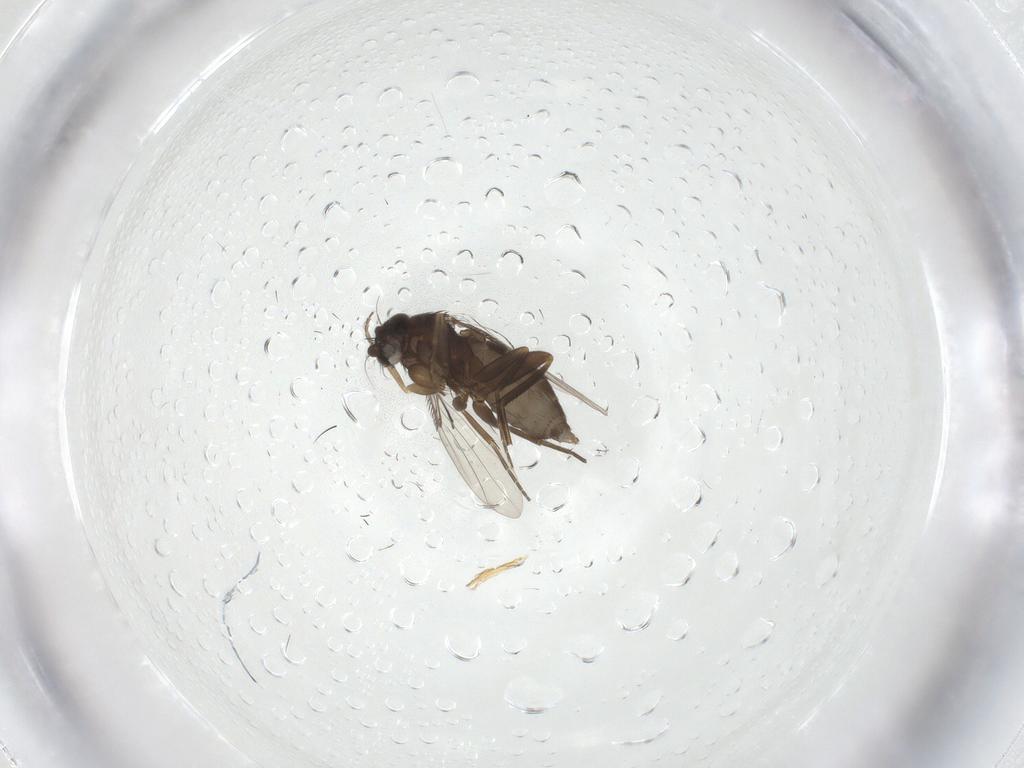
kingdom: Animalia
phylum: Arthropoda
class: Insecta
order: Diptera
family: Phoridae
